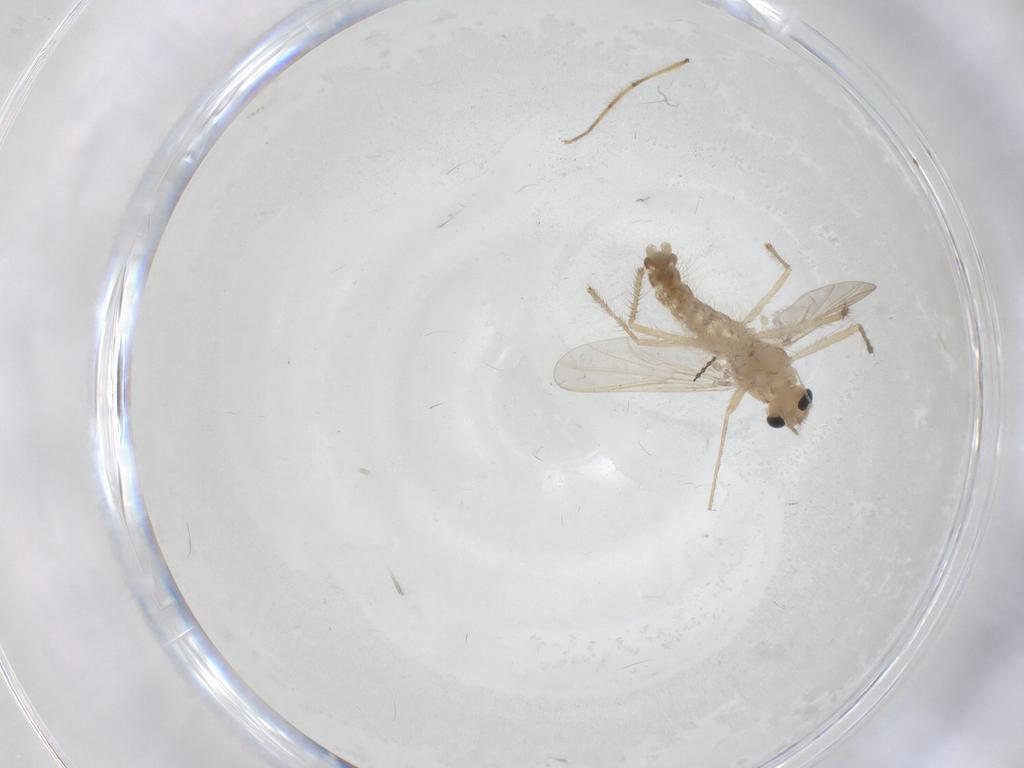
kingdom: Animalia
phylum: Arthropoda
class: Insecta
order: Diptera
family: Chironomidae
